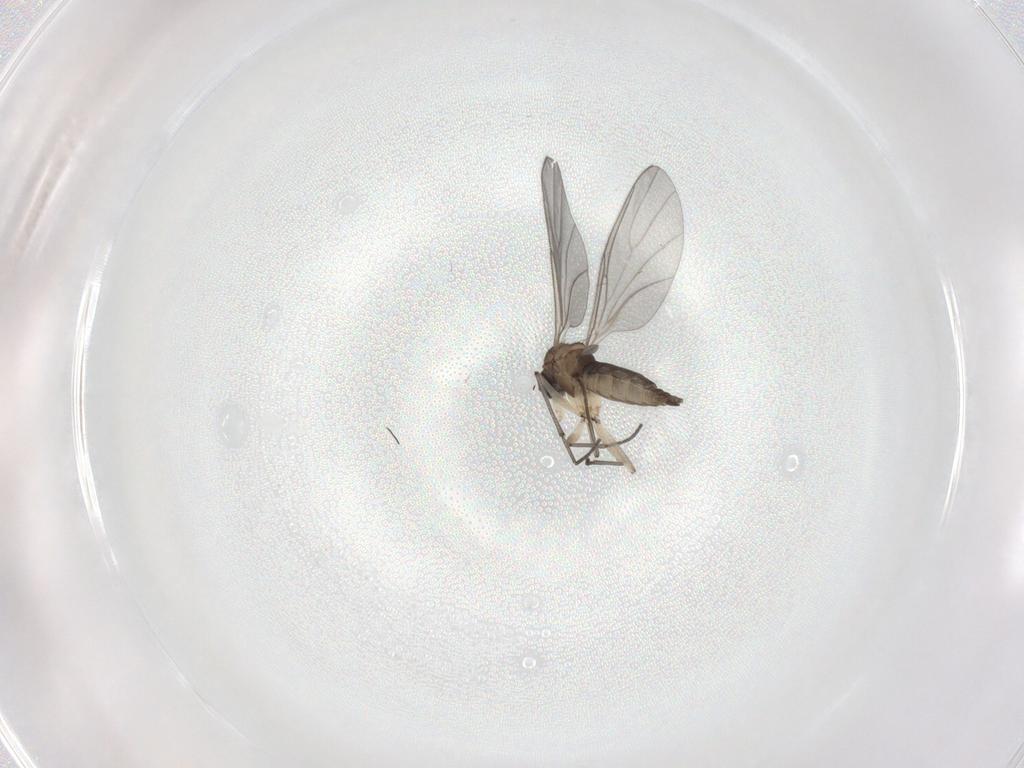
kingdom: Animalia
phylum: Arthropoda
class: Insecta
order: Diptera
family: Sciaridae
